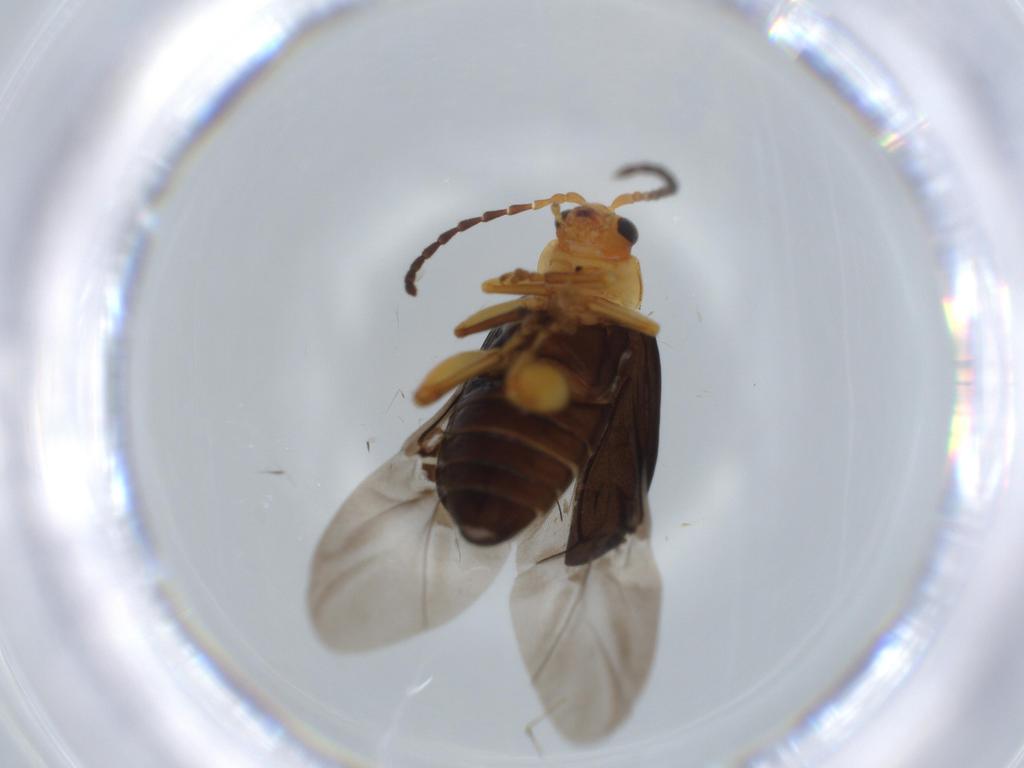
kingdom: Animalia
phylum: Arthropoda
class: Insecta
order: Coleoptera
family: Chrysomelidae
